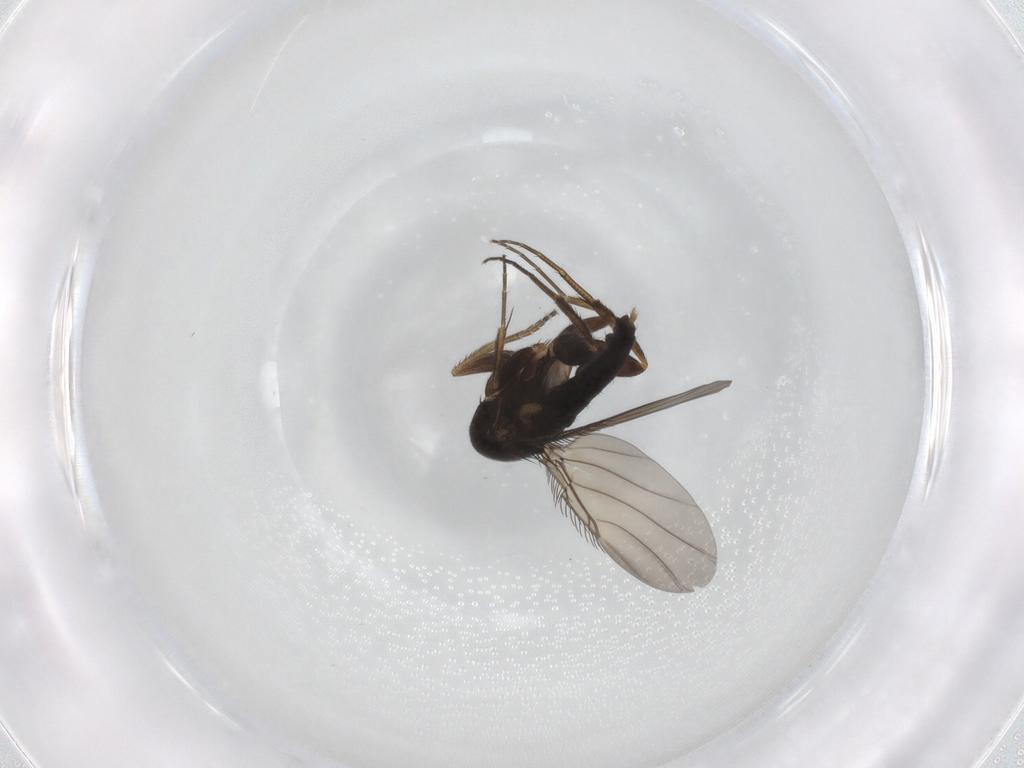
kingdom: Animalia
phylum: Arthropoda
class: Insecta
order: Diptera
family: Phoridae
